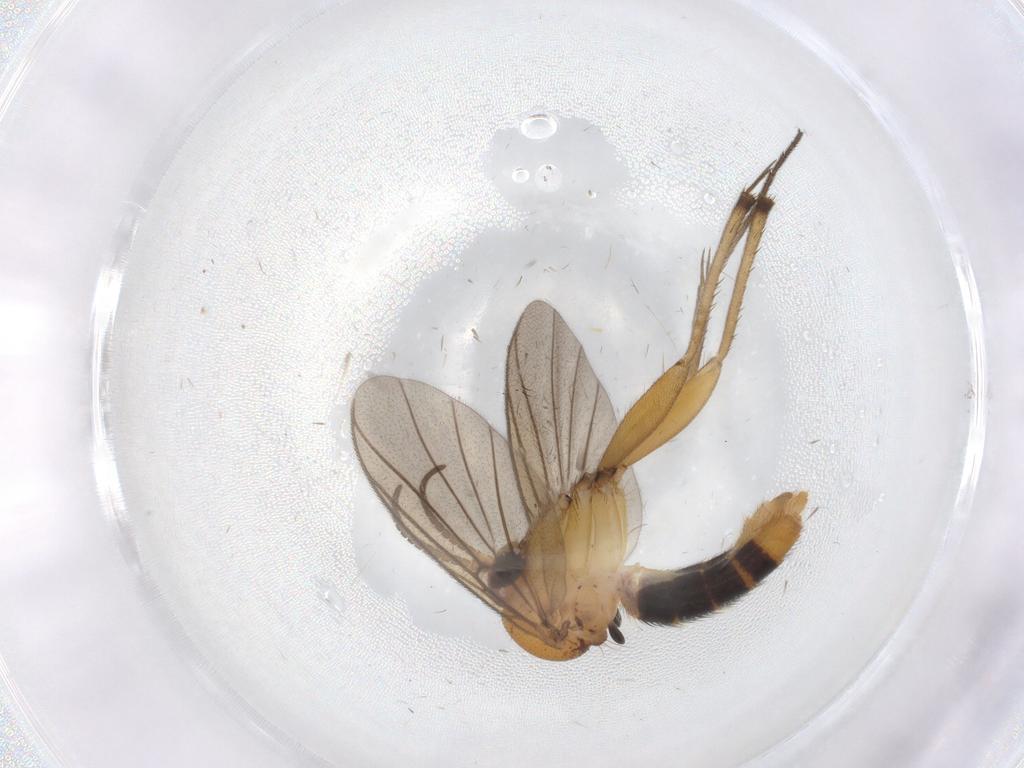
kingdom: Animalia
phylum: Arthropoda
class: Insecta
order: Diptera
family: Mycetophilidae
